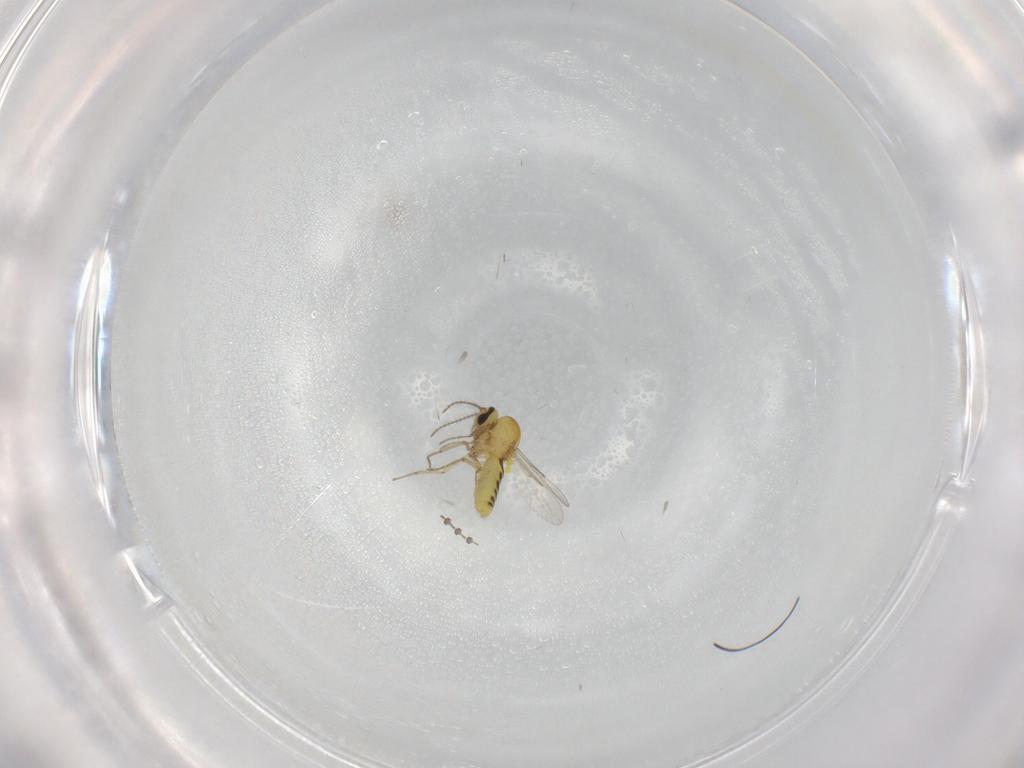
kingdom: Animalia
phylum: Arthropoda
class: Insecta
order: Diptera
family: Ceratopogonidae
